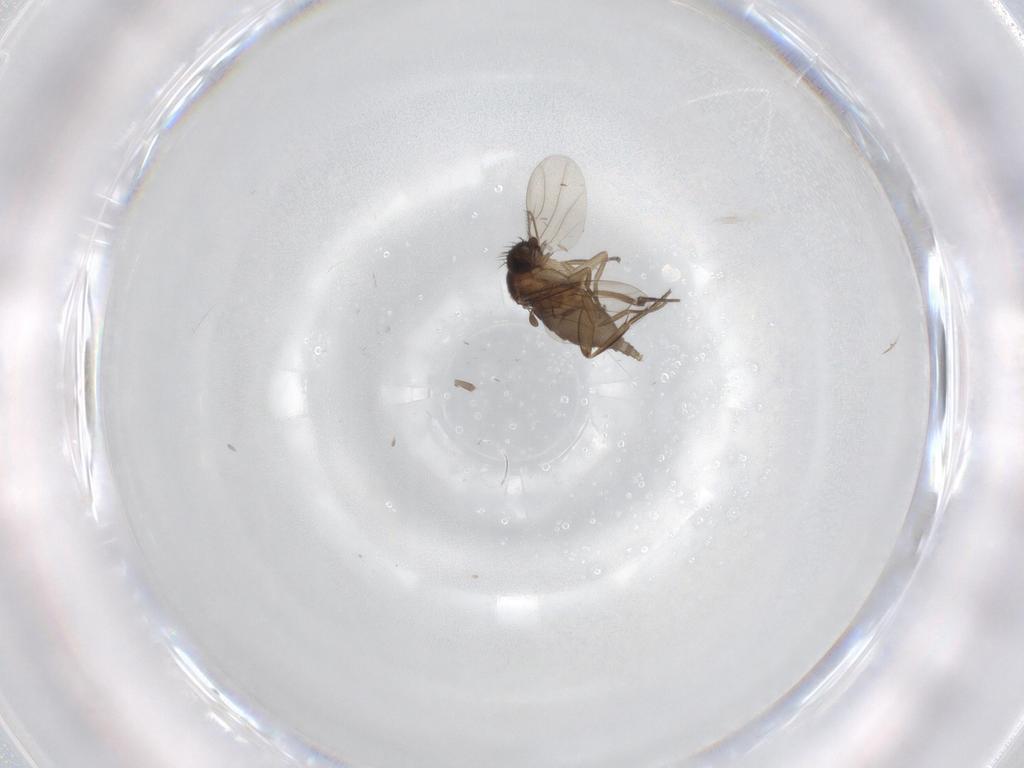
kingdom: Animalia
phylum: Arthropoda
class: Insecta
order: Diptera
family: Phoridae
